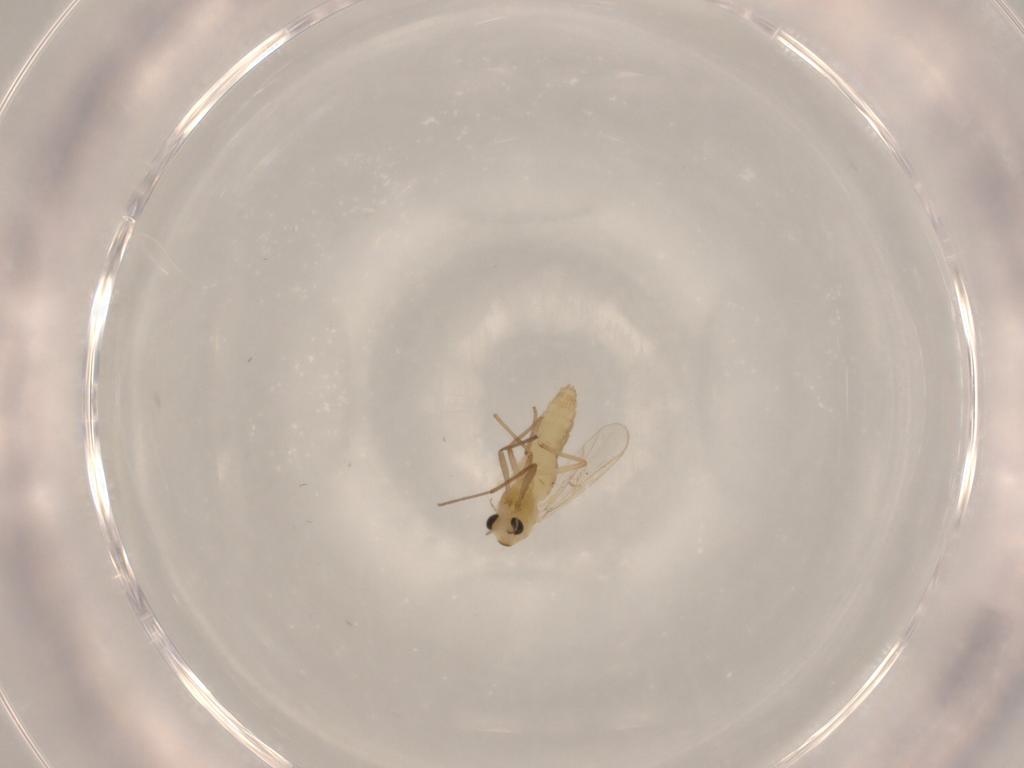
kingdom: Animalia
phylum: Arthropoda
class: Insecta
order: Diptera
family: Chironomidae
